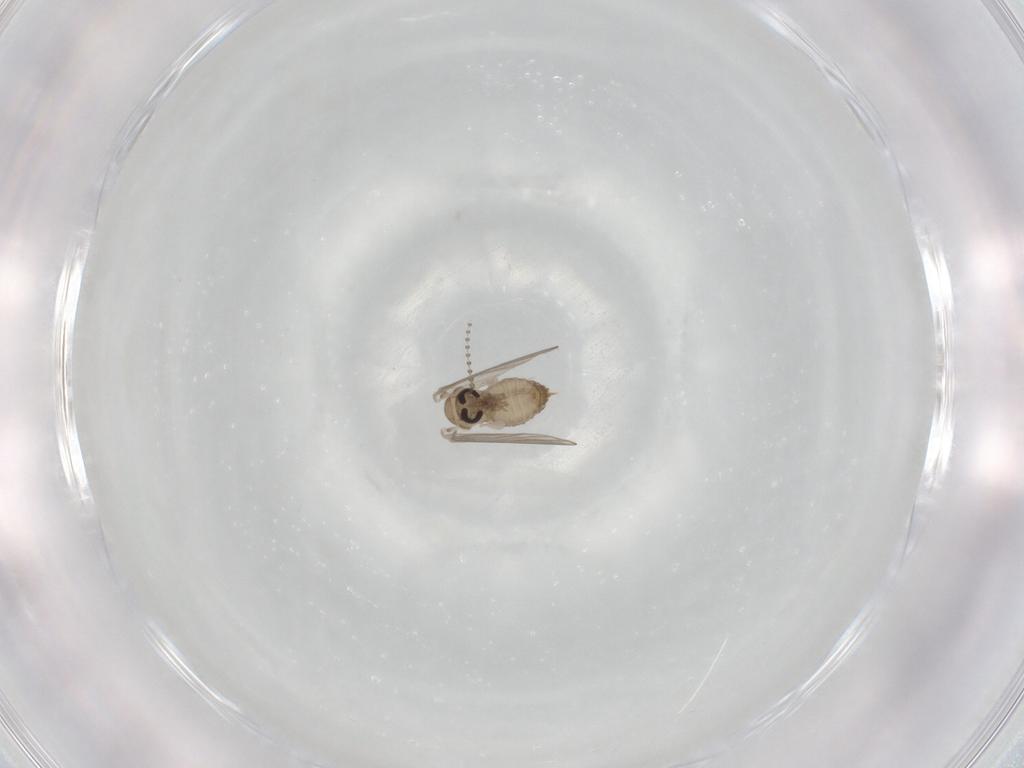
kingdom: Animalia
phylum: Arthropoda
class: Insecta
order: Diptera
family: Psychodidae
